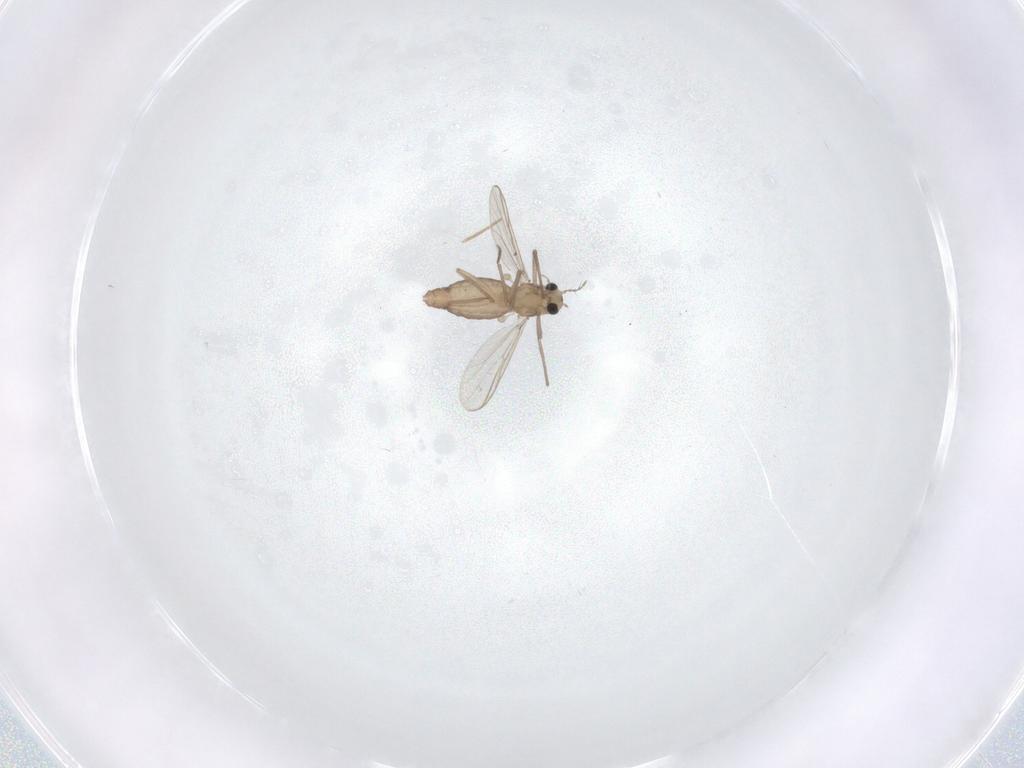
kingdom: Animalia
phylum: Arthropoda
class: Insecta
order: Diptera
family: Chironomidae
